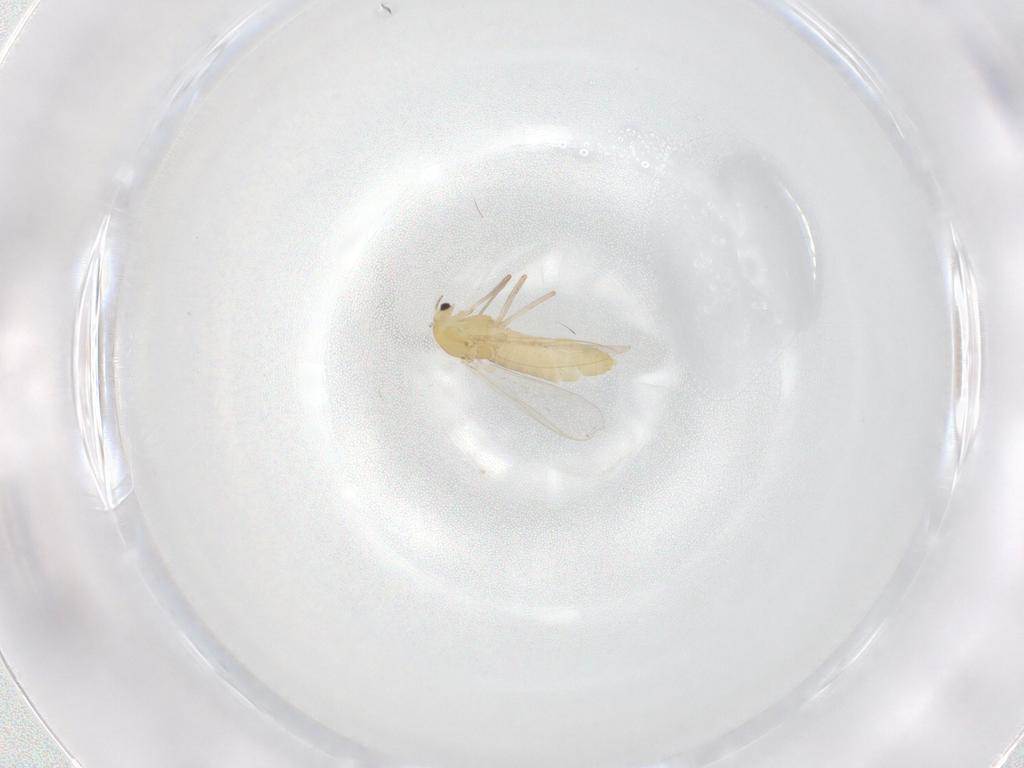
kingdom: Animalia
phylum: Arthropoda
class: Insecta
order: Diptera
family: Chironomidae
